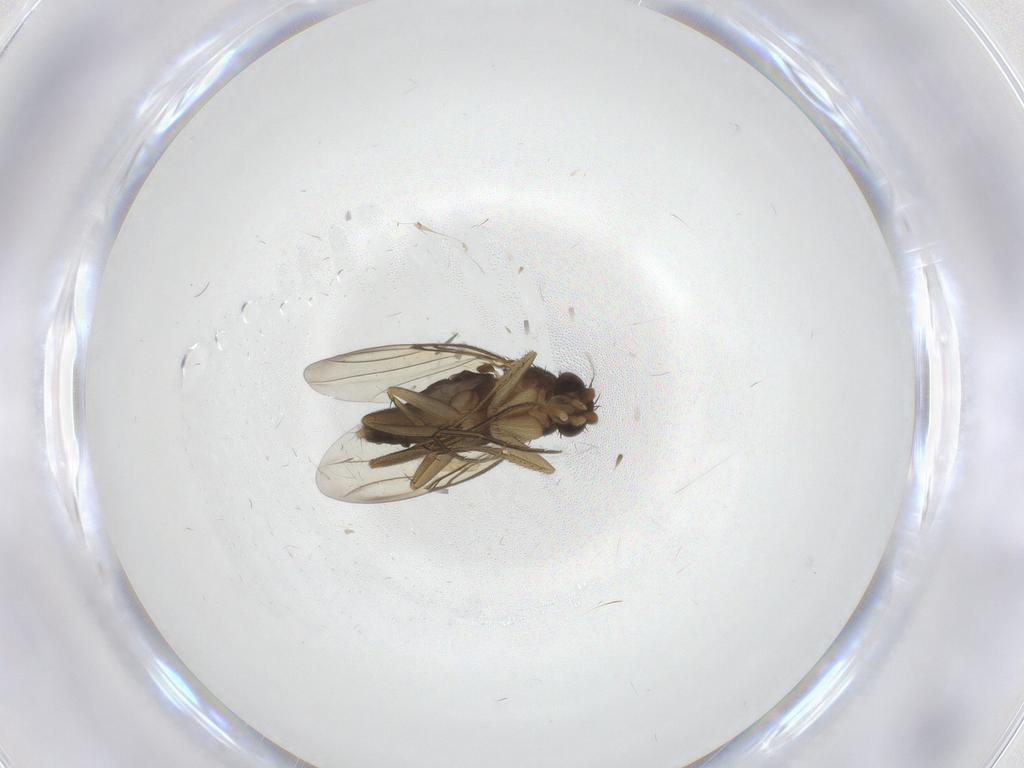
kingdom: Animalia
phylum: Arthropoda
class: Insecta
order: Diptera
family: Phoridae
